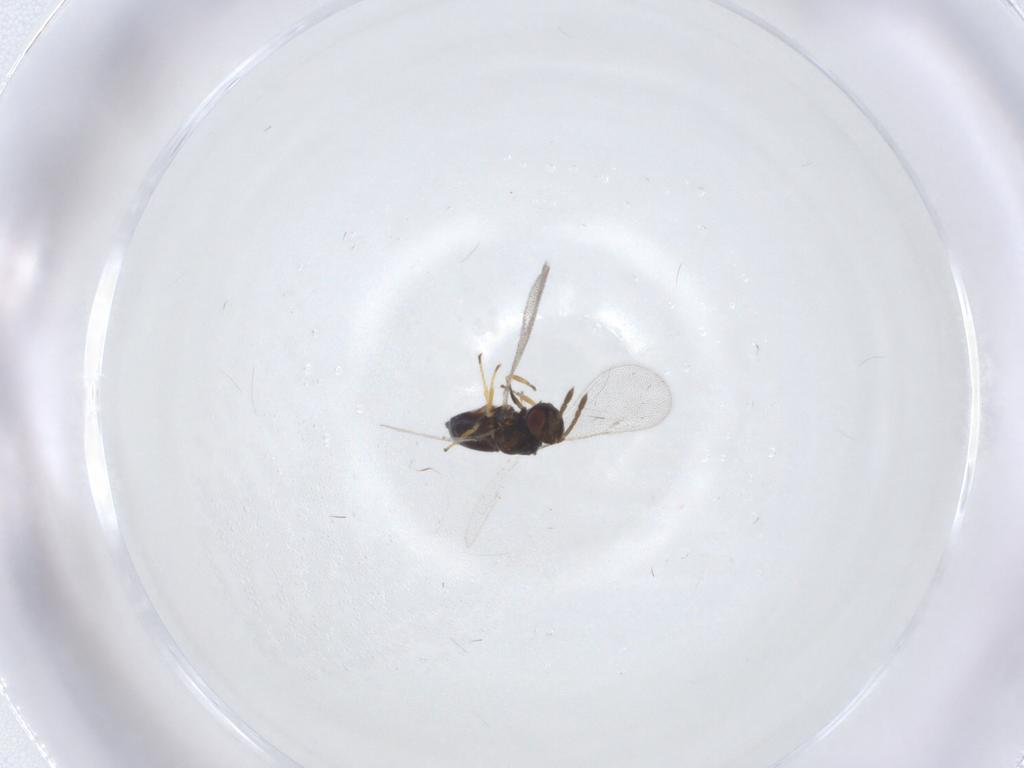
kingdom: Animalia
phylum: Arthropoda
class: Insecta
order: Hymenoptera
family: Eulophidae
